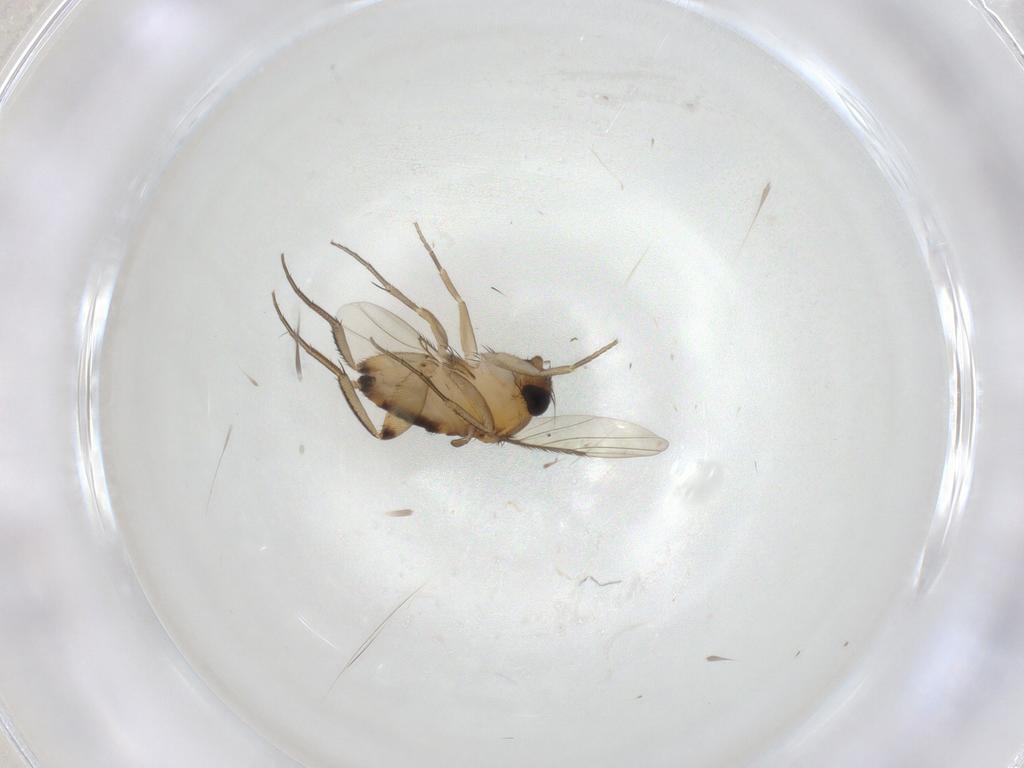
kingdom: Animalia
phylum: Arthropoda
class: Insecta
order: Diptera
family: Phoridae
